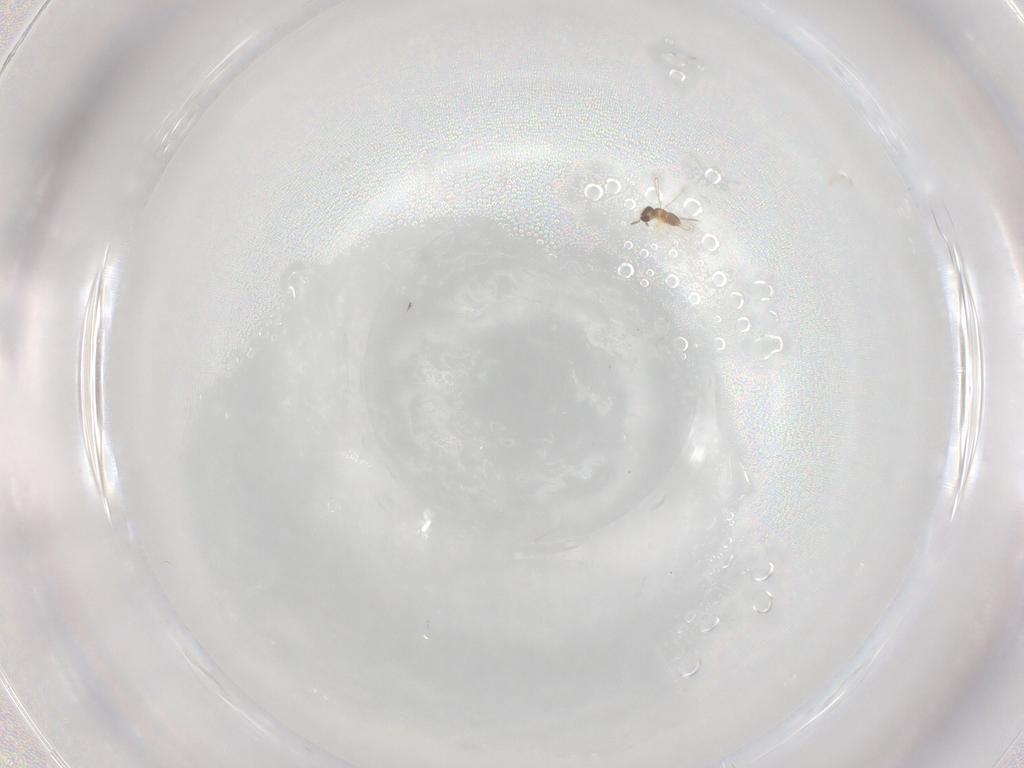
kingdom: Animalia
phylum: Arthropoda
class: Insecta
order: Hymenoptera
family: Mymaridae
